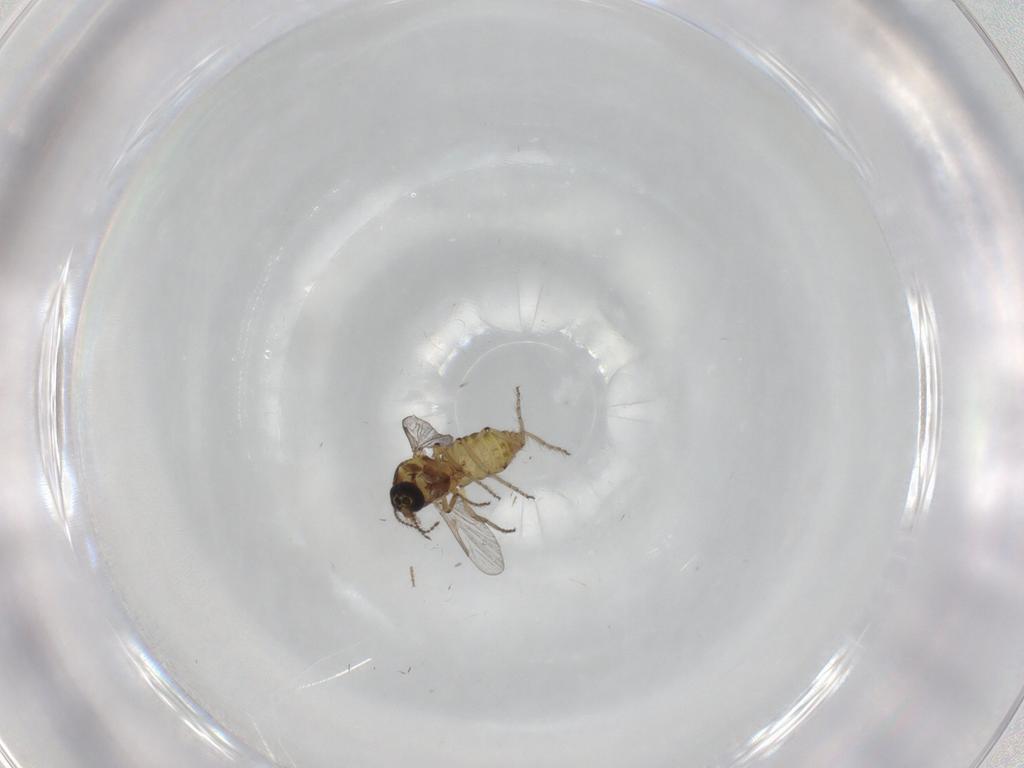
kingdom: Animalia
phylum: Arthropoda
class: Insecta
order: Diptera
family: Ceratopogonidae
